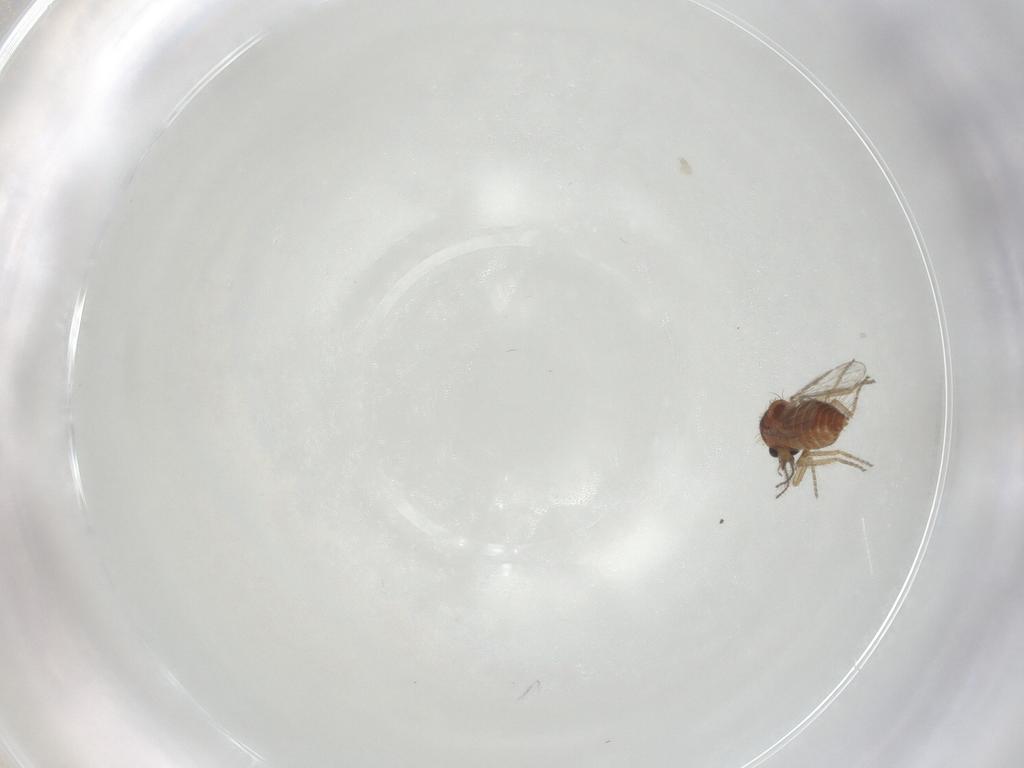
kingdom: Animalia
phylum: Arthropoda
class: Insecta
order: Diptera
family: Ceratopogonidae
